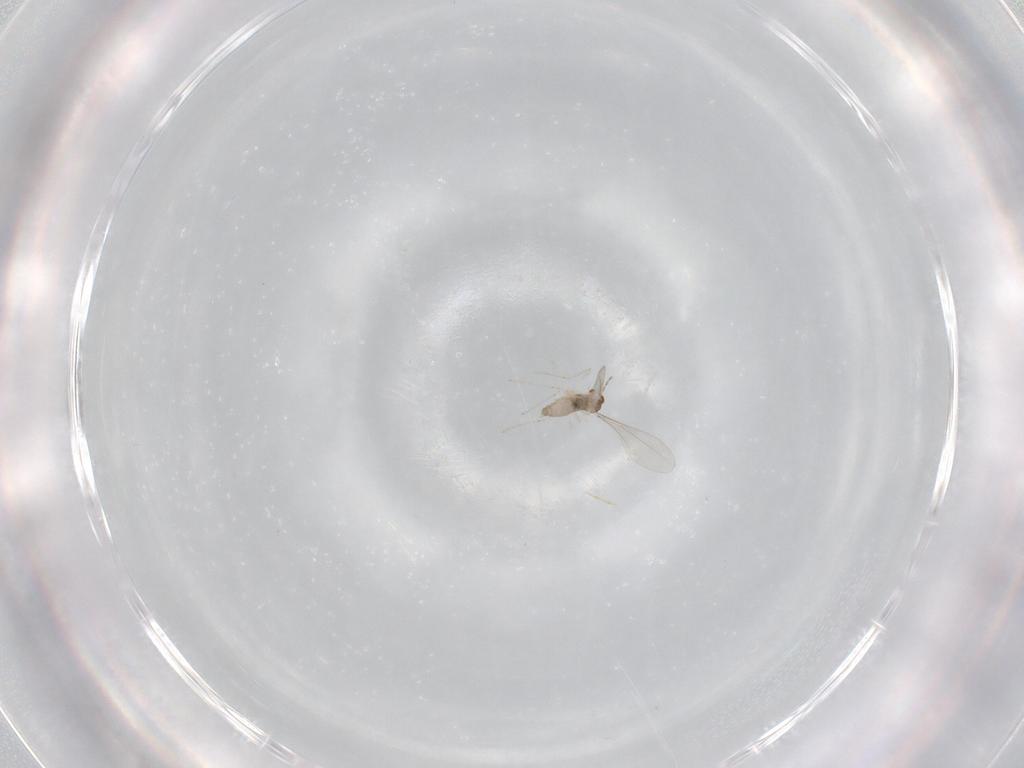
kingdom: Animalia
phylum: Arthropoda
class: Insecta
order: Diptera
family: Cecidomyiidae
